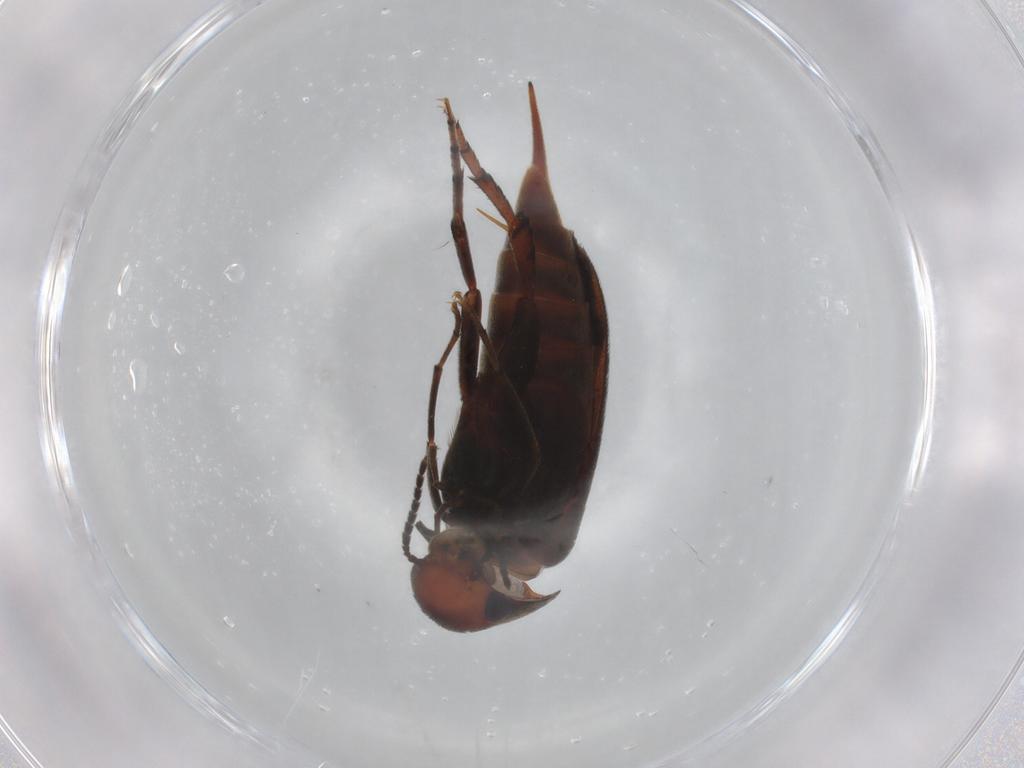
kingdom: Animalia
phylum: Arthropoda
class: Insecta
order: Coleoptera
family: Mordellidae
